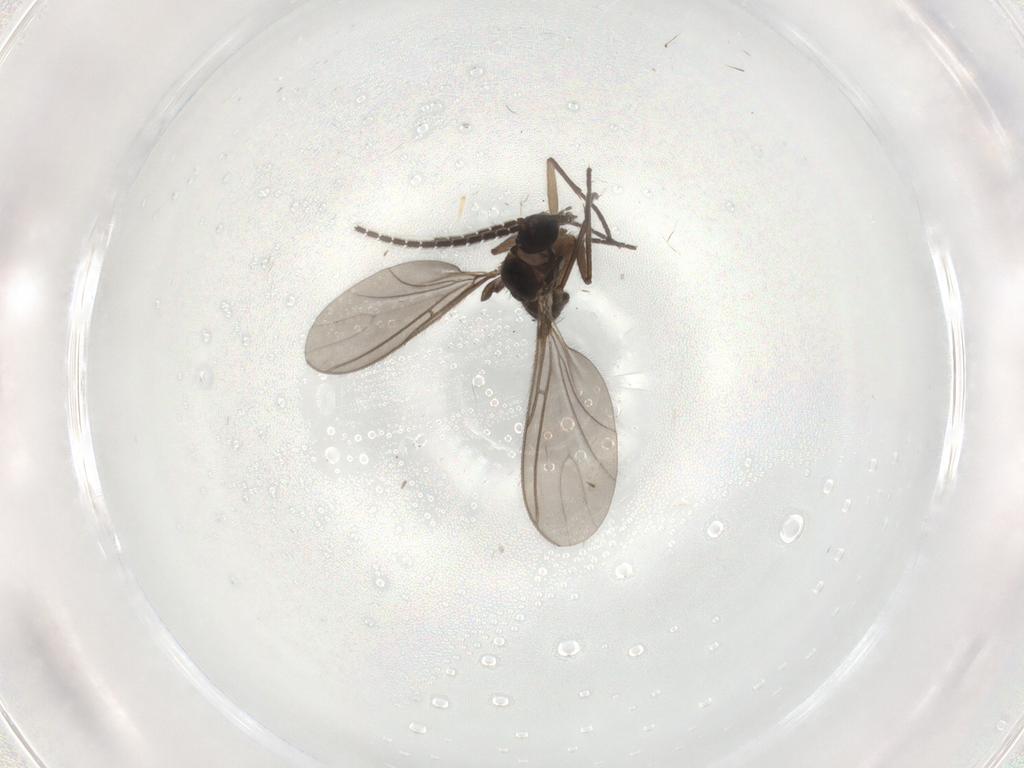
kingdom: Animalia
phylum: Arthropoda
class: Insecta
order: Diptera
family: Sciaridae
